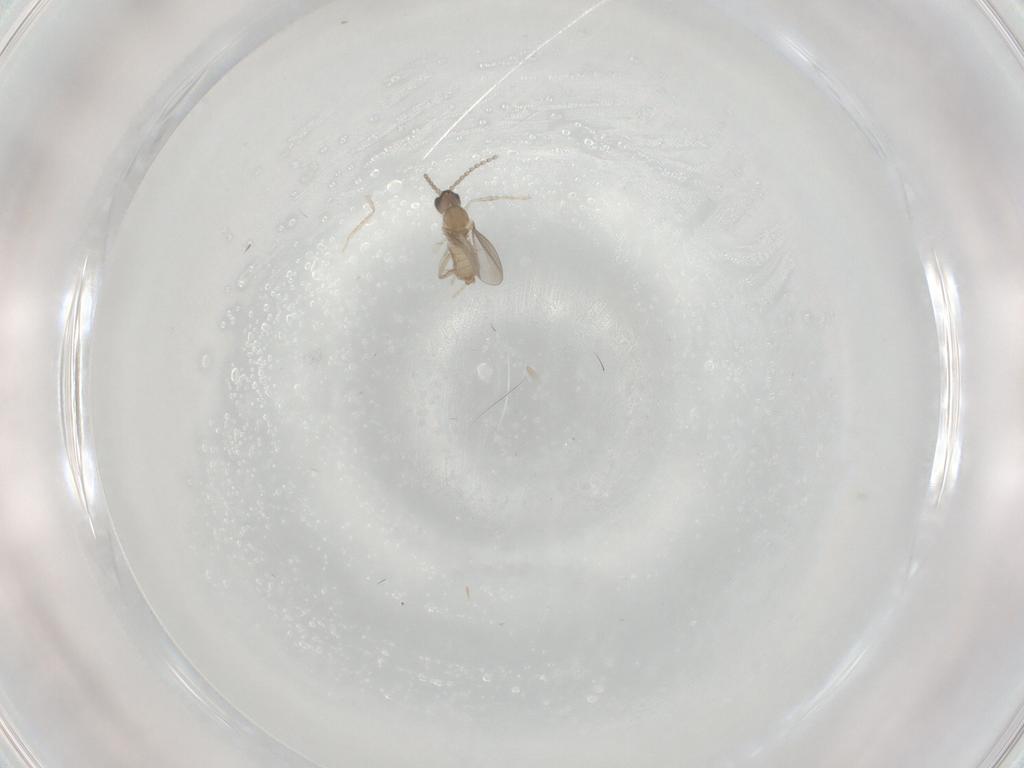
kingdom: Animalia
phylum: Arthropoda
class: Insecta
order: Diptera
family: Cecidomyiidae
